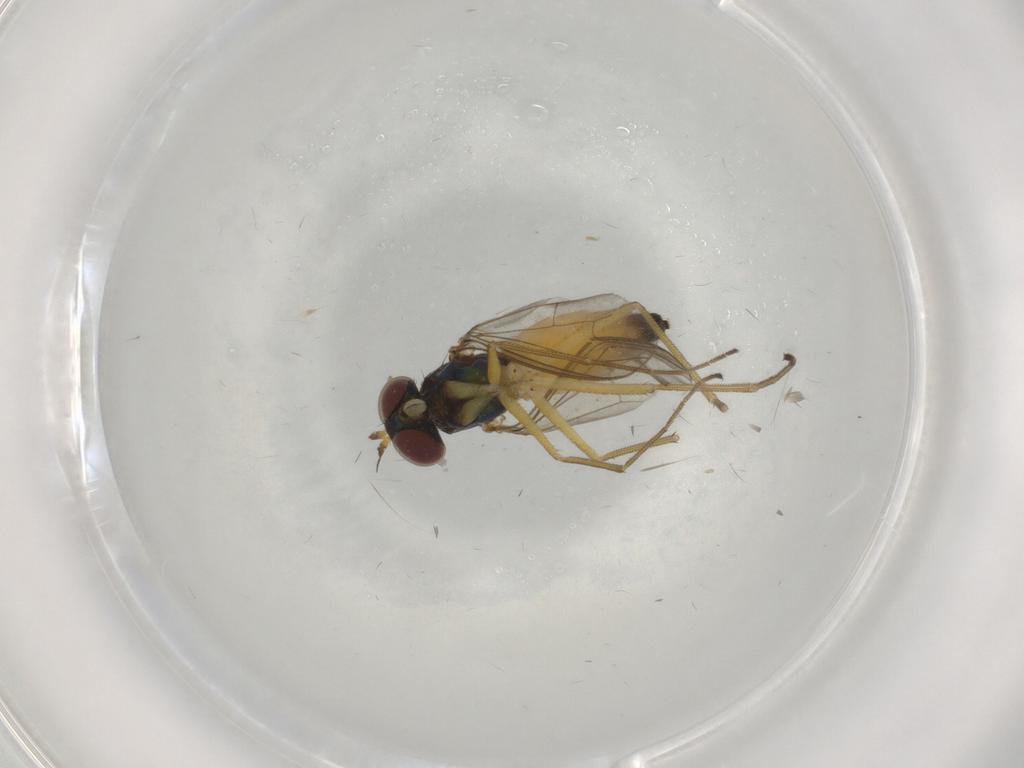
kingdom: Animalia
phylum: Arthropoda
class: Insecta
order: Diptera
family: Dolichopodidae
